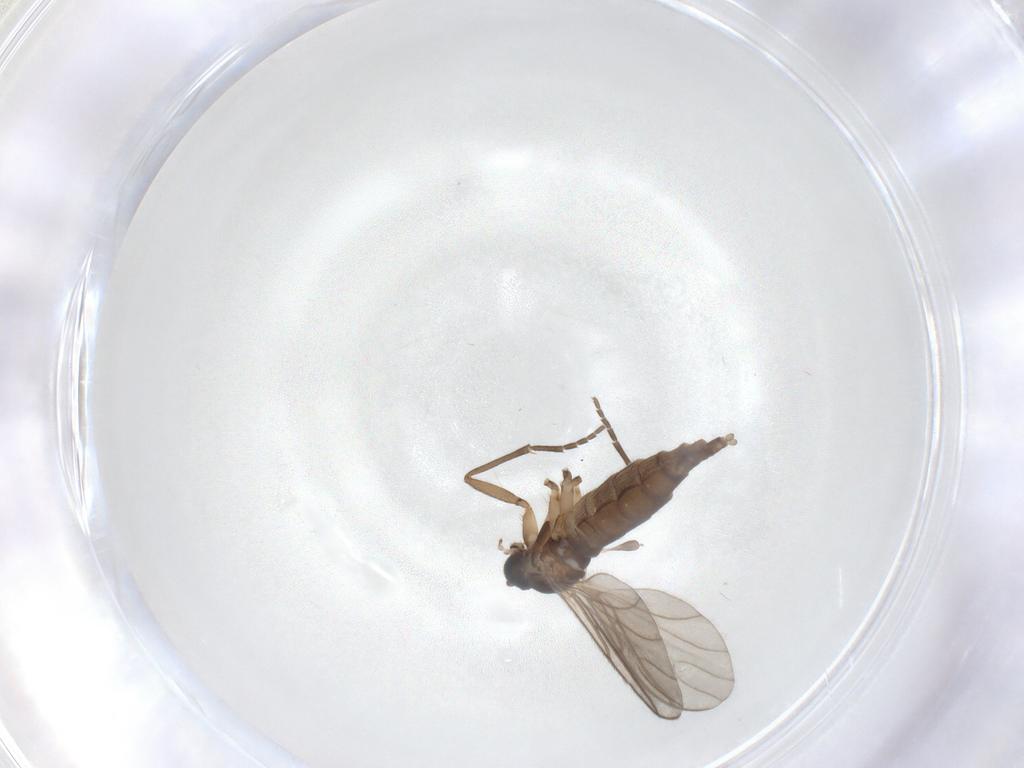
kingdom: Animalia
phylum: Arthropoda
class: Insecta
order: Diptera
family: Sciaridae
